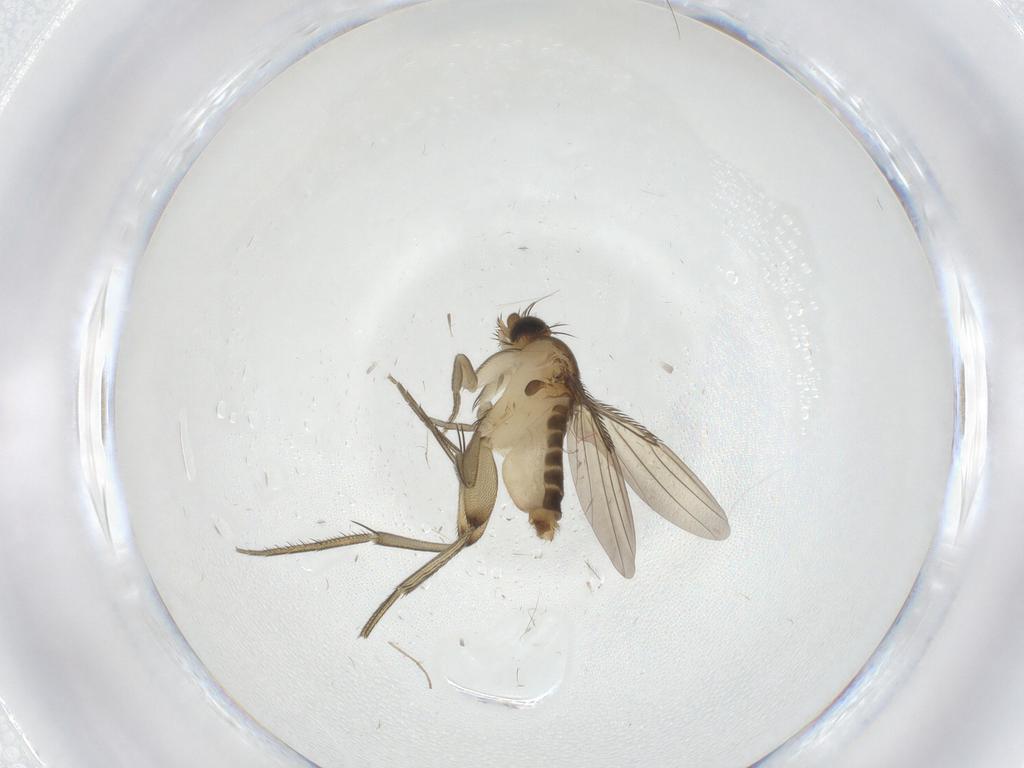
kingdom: Animalia
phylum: Arthropoda
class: Insecta
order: Diptera
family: Phoridae
